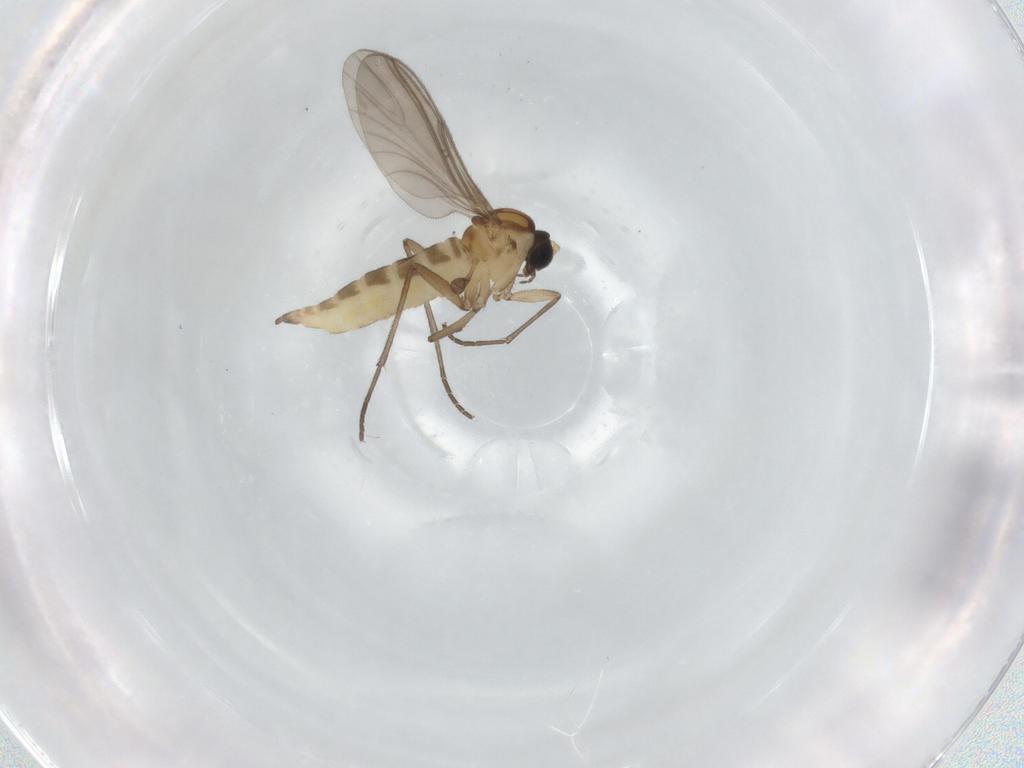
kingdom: Animalia
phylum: Arthropoda
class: Insecta
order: Diptera
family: Sciaridae
